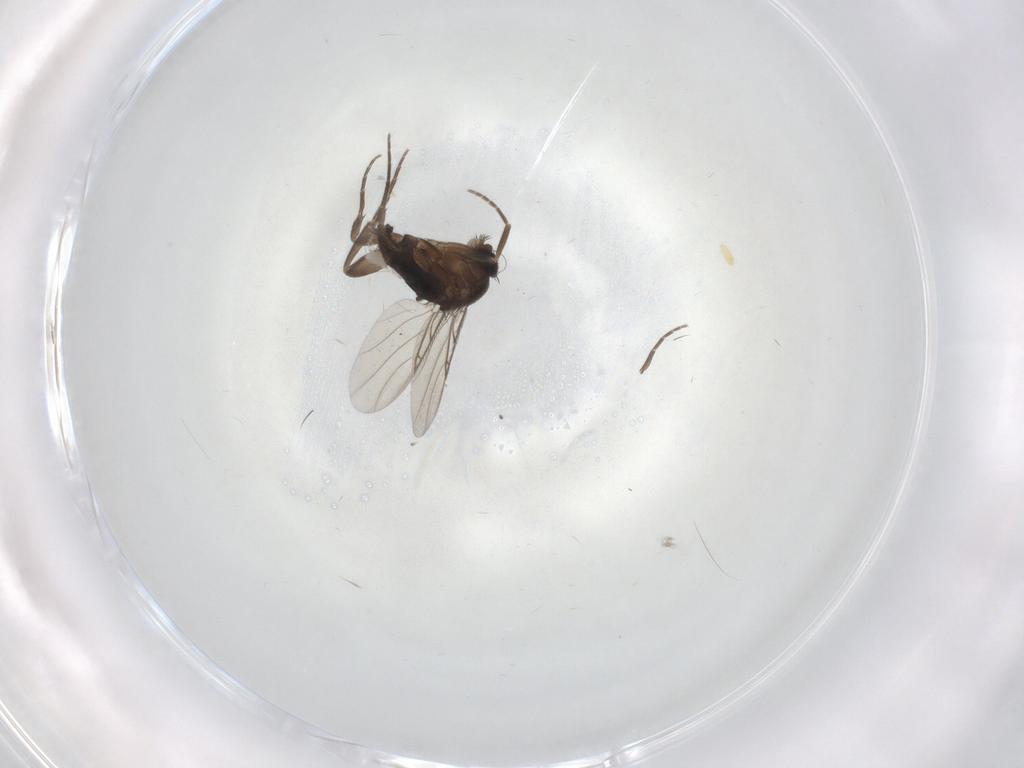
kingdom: Animalia
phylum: Arthropoda
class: Insecta
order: Diptera
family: Phoridae
